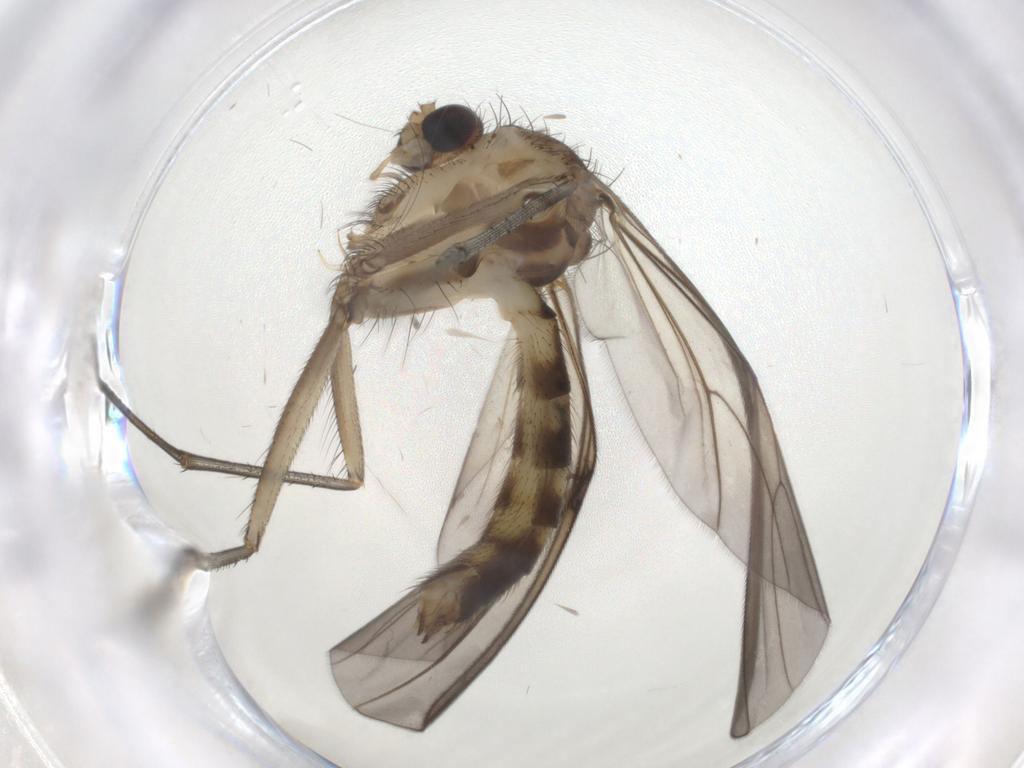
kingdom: Animalia
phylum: Arthropoda
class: Insecta
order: Diptera
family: Mycetophilidae
